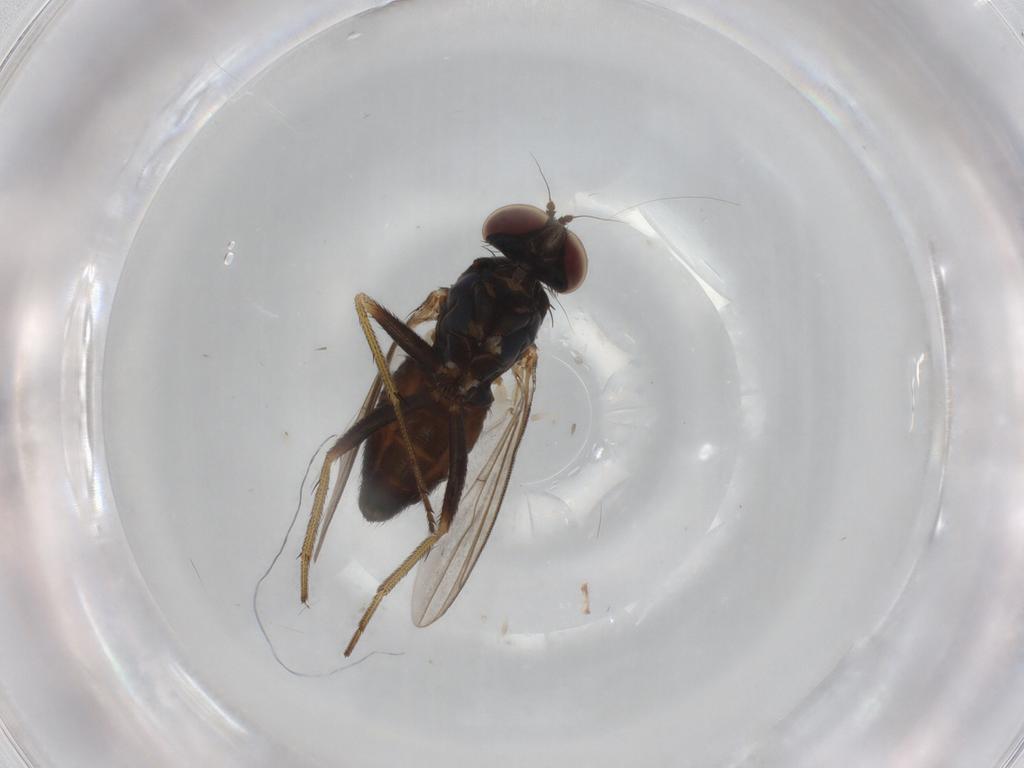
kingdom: Animalia
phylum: Arthropoda
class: Insecta
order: Diptera
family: Dolichopodidae
